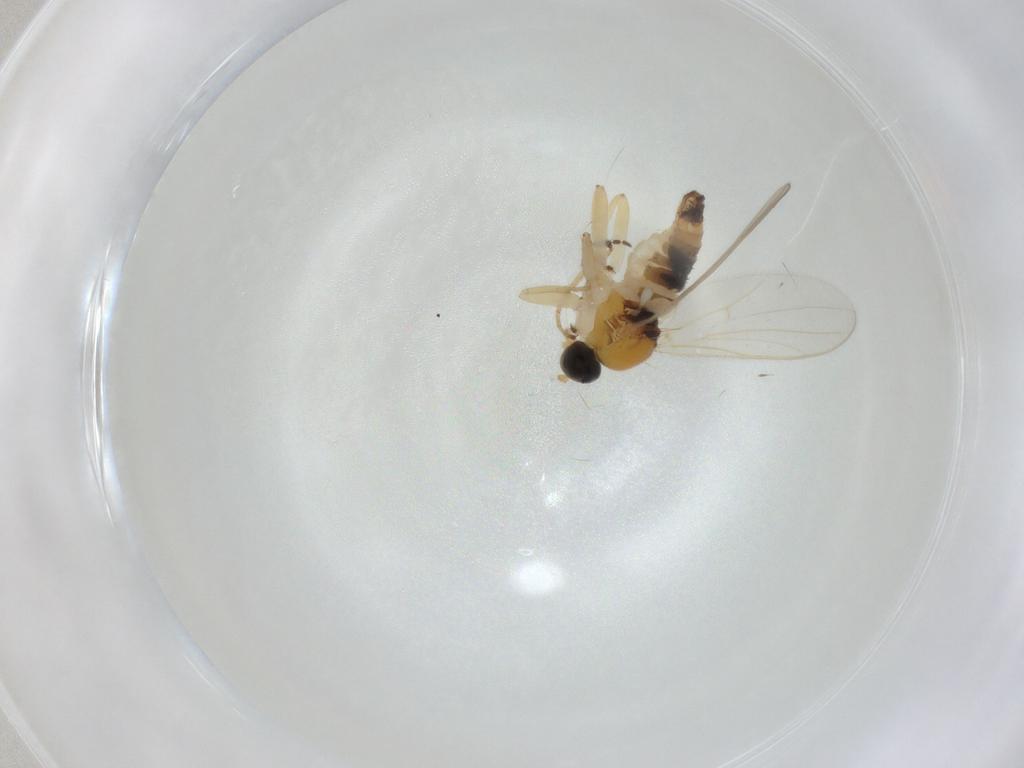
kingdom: Animalia
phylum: Arthropoda
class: Insecta
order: Diptera
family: Hybotidae
